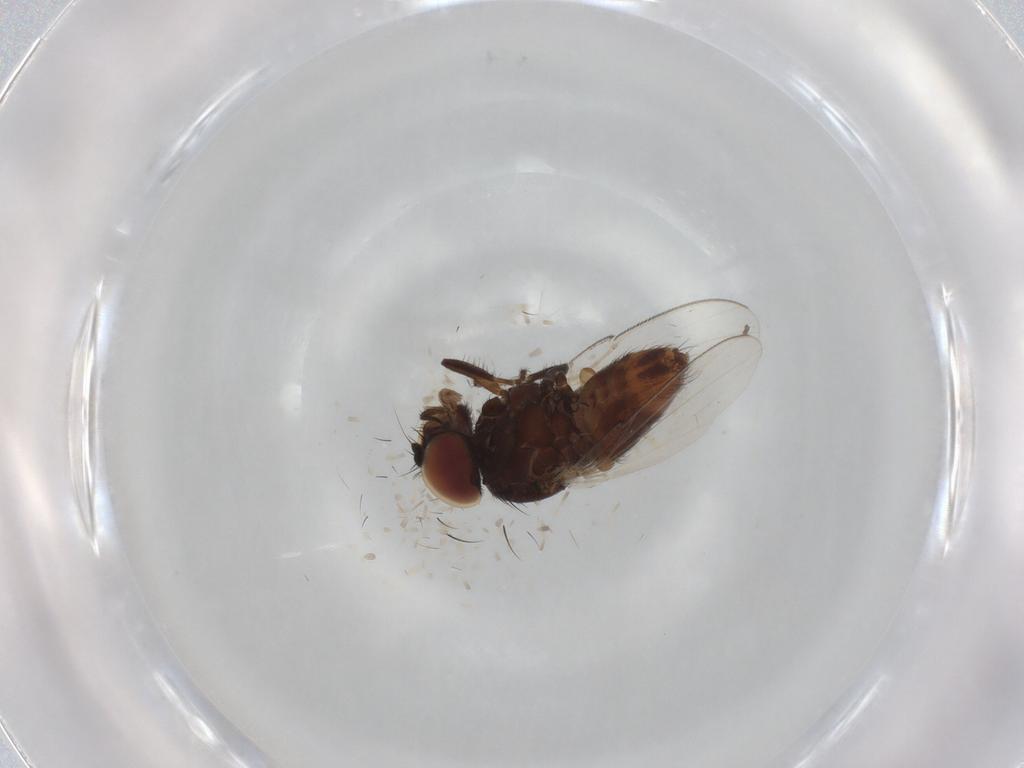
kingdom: Animalia
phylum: Arthropoda
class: Insecta
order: Diptera
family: Milichiidae
